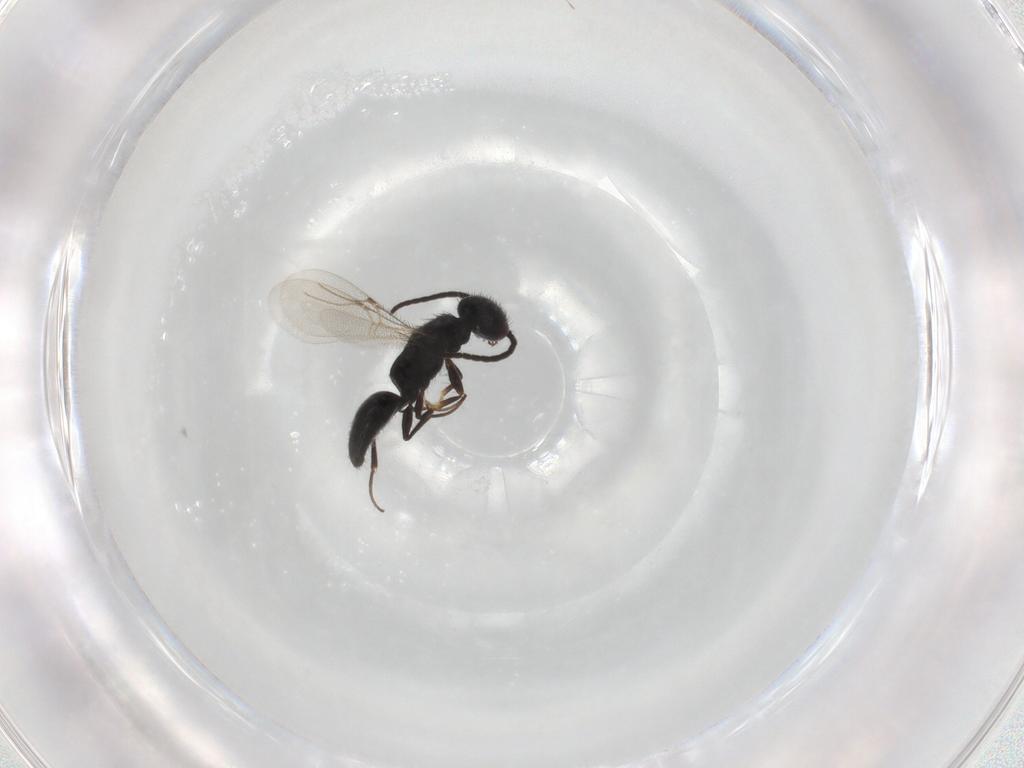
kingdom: Animalia
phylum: Arthropoda
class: Insecta
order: Hymenoptera
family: Bethylidae
